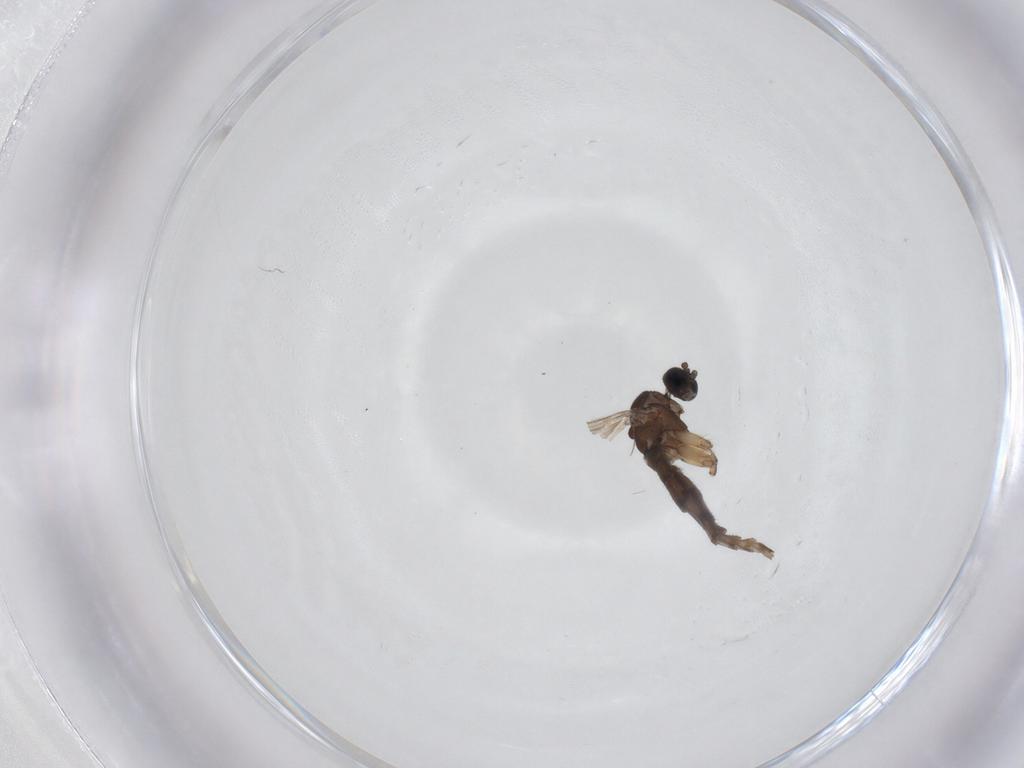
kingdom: Animalia
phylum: Arthropoda
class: Insecta
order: Diptera
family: Sciaridae
